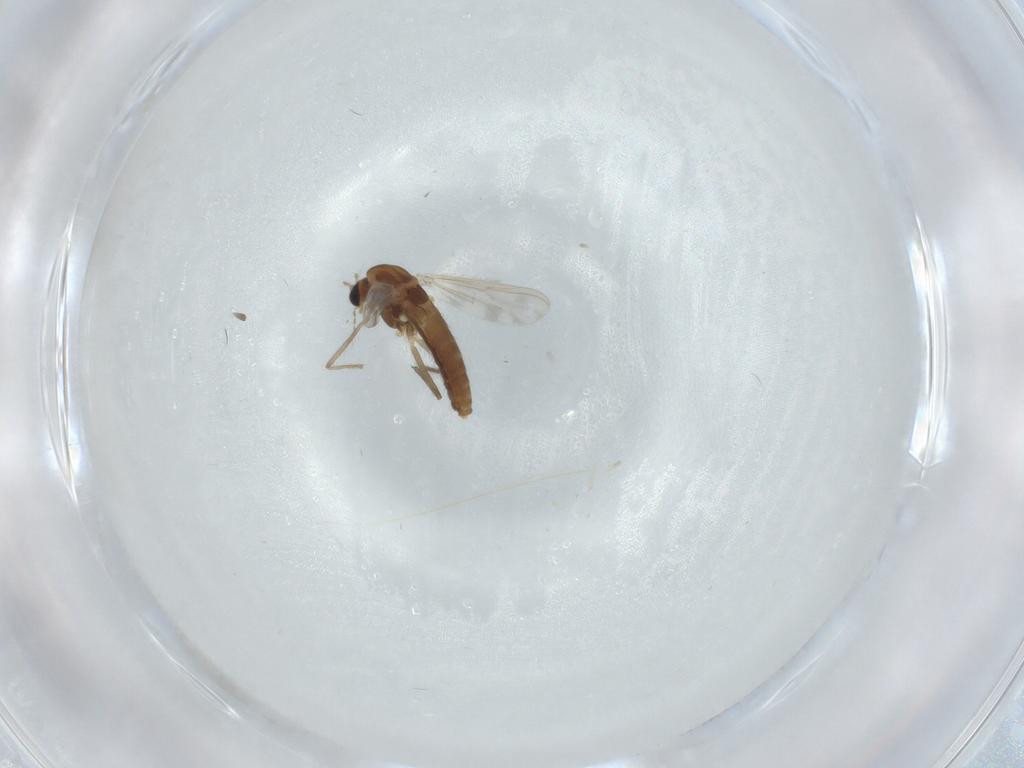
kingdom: Animalia
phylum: Arthropoda
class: Insecta
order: Diptera
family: Chironomidae
